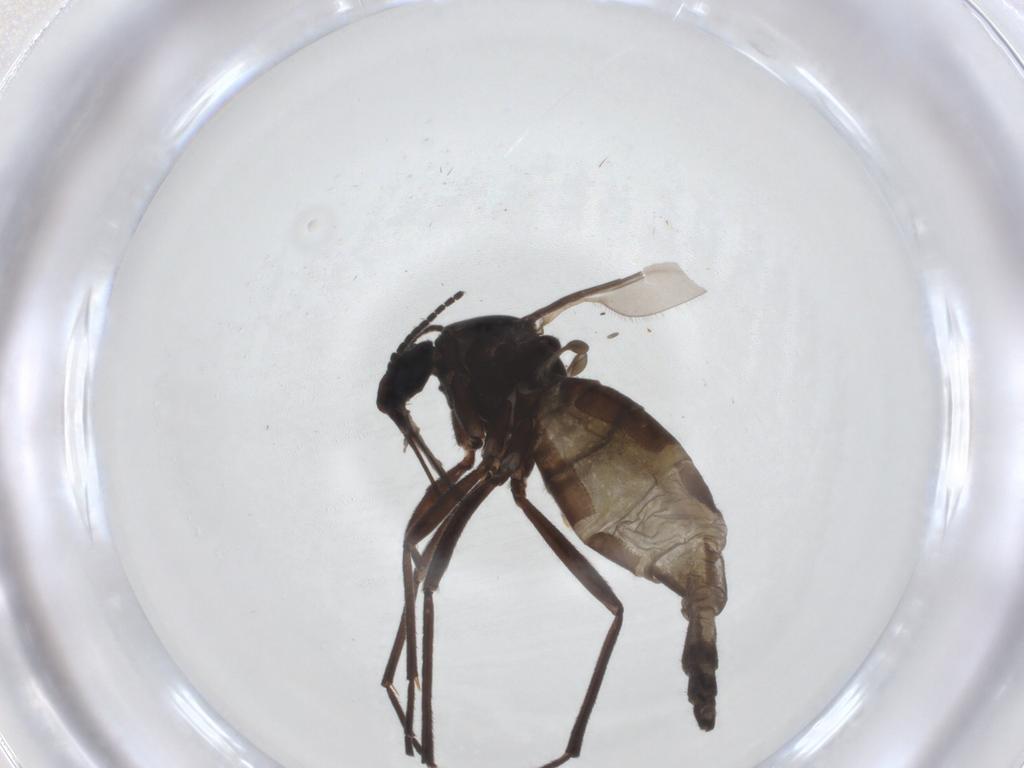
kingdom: Animalia
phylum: Arthropoda
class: Insecta
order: Diptera
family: Sciaridae
